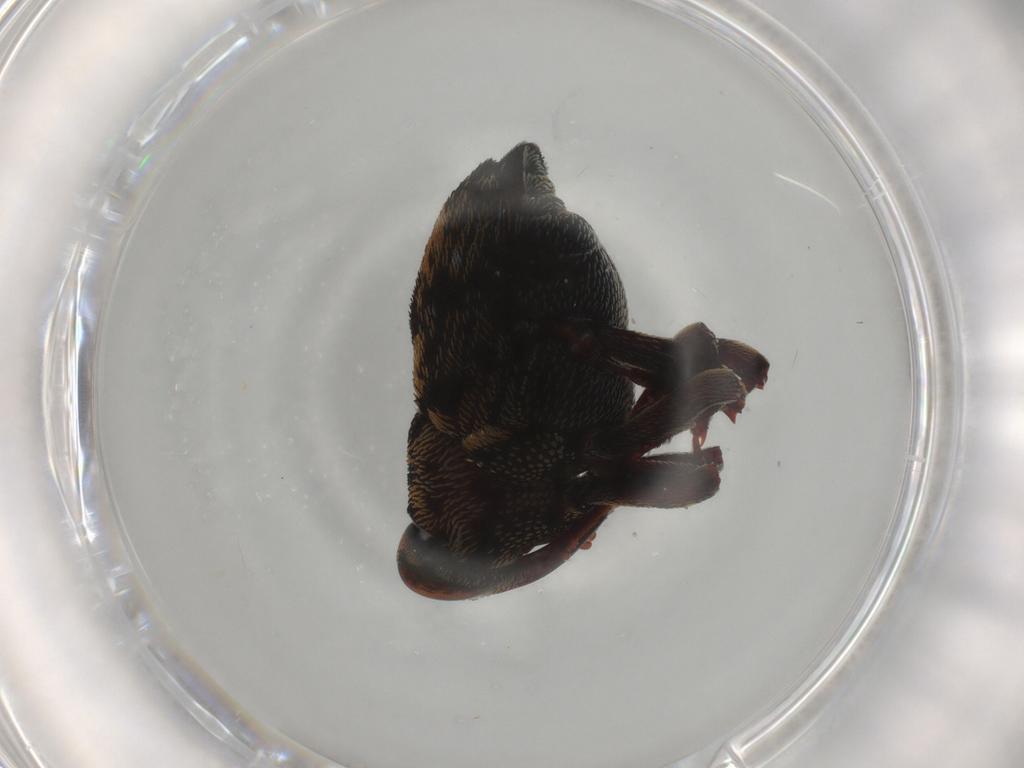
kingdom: Animalia
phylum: Arthropoda
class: Insecta
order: Coleoptera
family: Curculionidae
